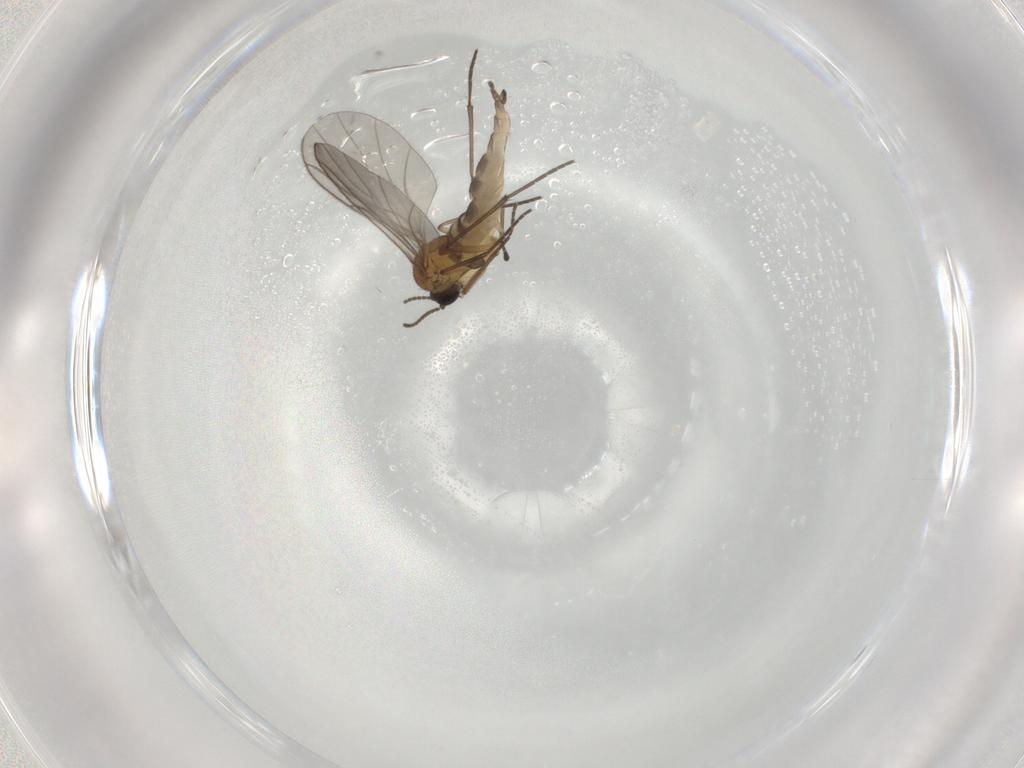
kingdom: Animalia
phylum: Arthropoda
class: Insecta
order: Diptera
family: Sciaridae
